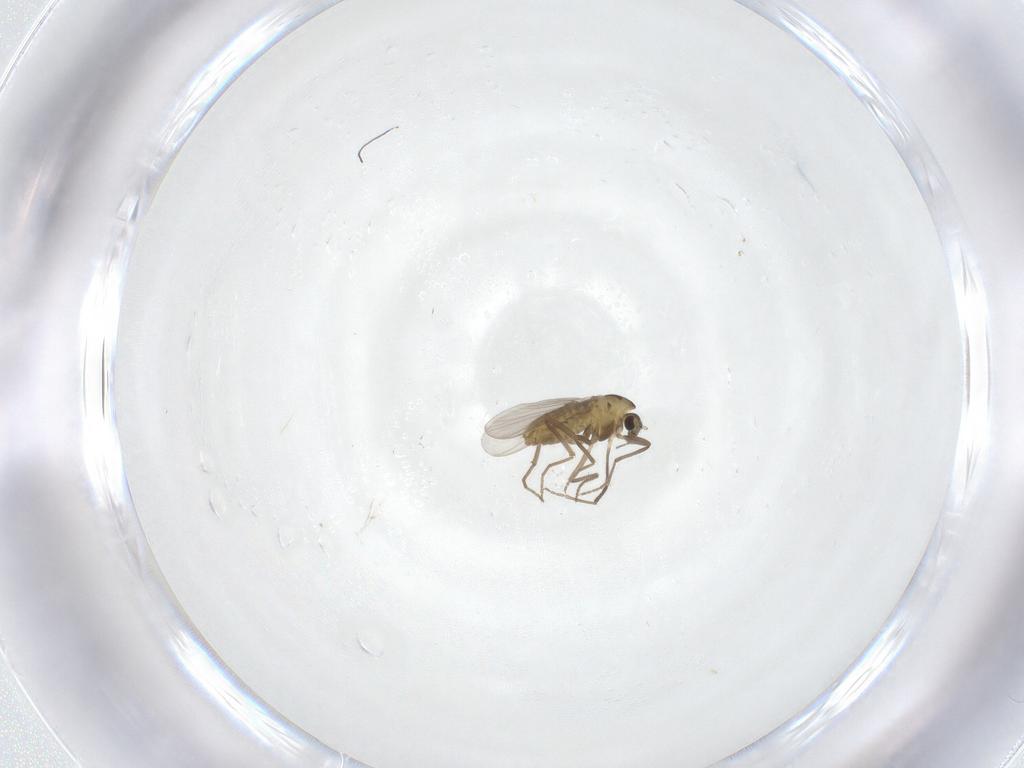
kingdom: Animalia
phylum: Arthropoda
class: Insecta
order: Diptera
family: Chironomidae
